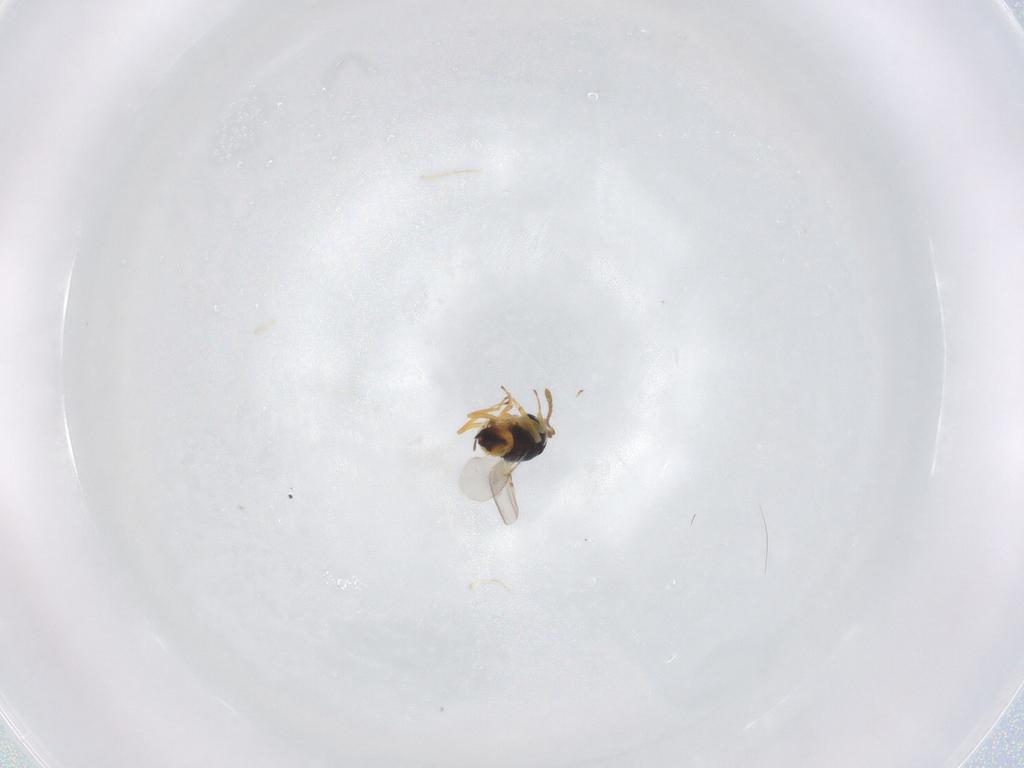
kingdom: Animalia
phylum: Arthropoda
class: Insecta
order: Hymenoptera
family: Encyrtidae
